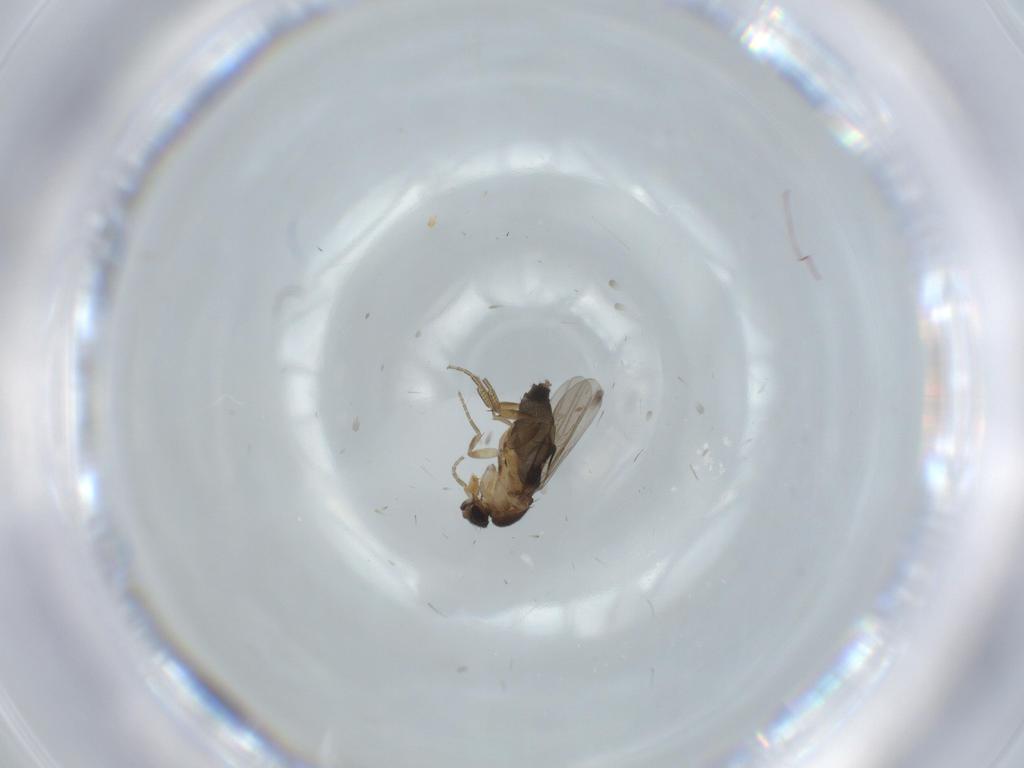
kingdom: Animalia
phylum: Arthropoda
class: Insecta
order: Diptera
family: Phoridae
